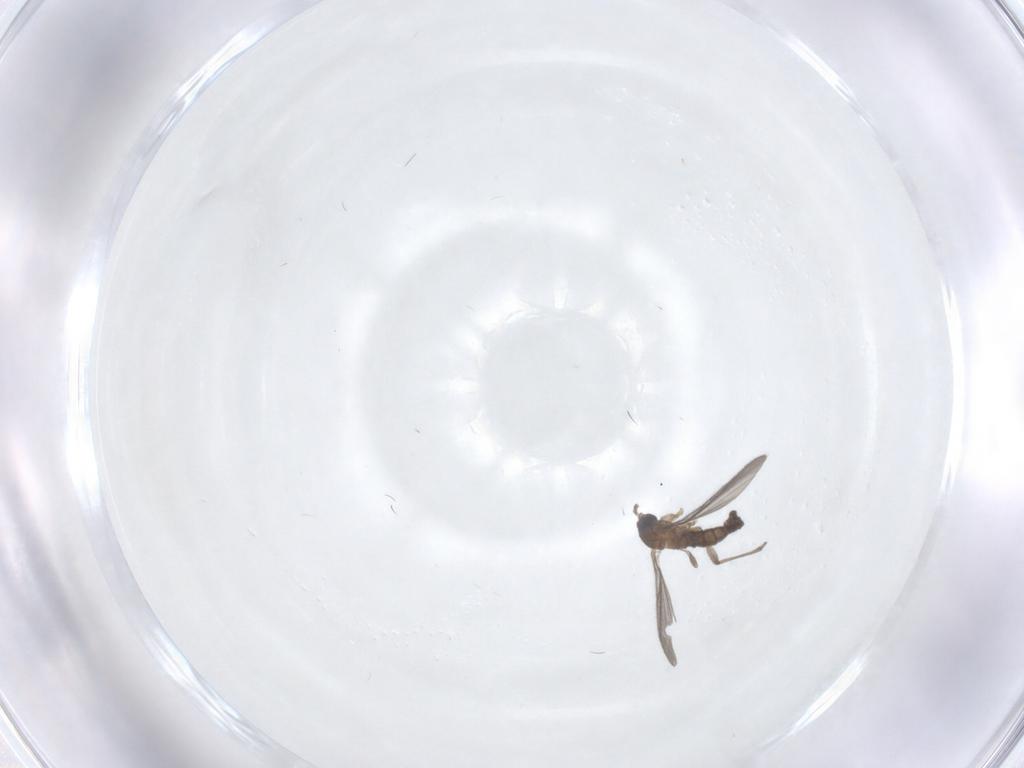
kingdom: Animalia
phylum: Arthropoda
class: Insecta
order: Diptera
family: Sciaridae
